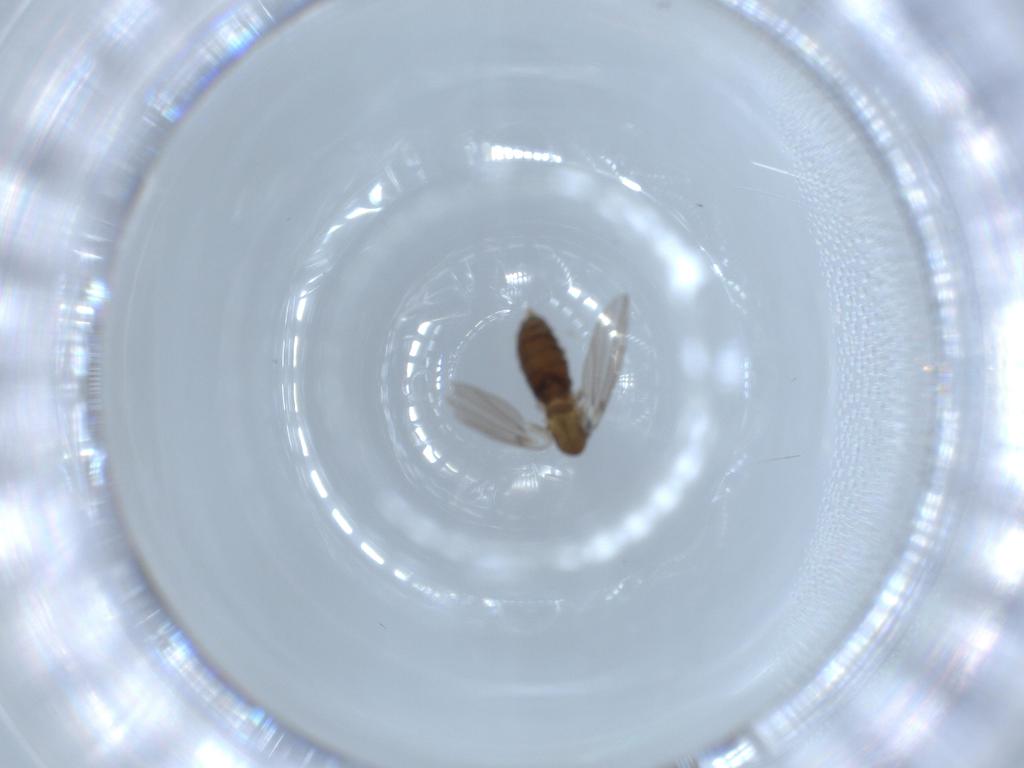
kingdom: Animalia
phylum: Arthropoda
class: Insecta
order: Diptera
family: Psychodidae
